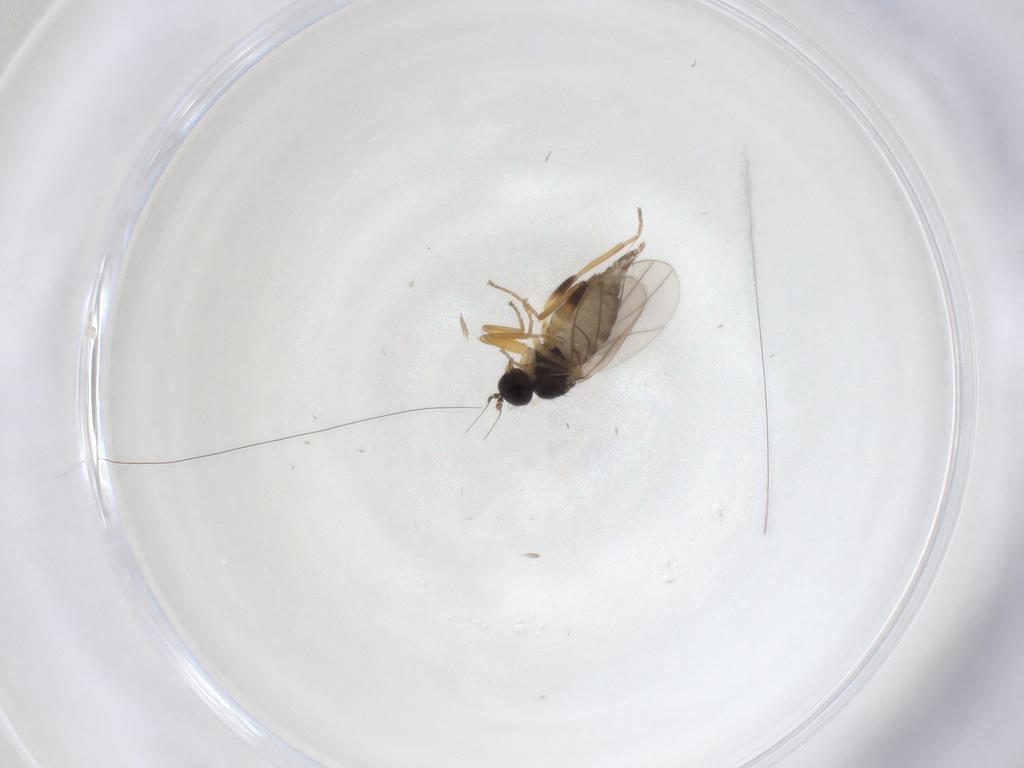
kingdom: Animalia
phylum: Arthropoda
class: Insecta
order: Diptera
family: Hybotidae
